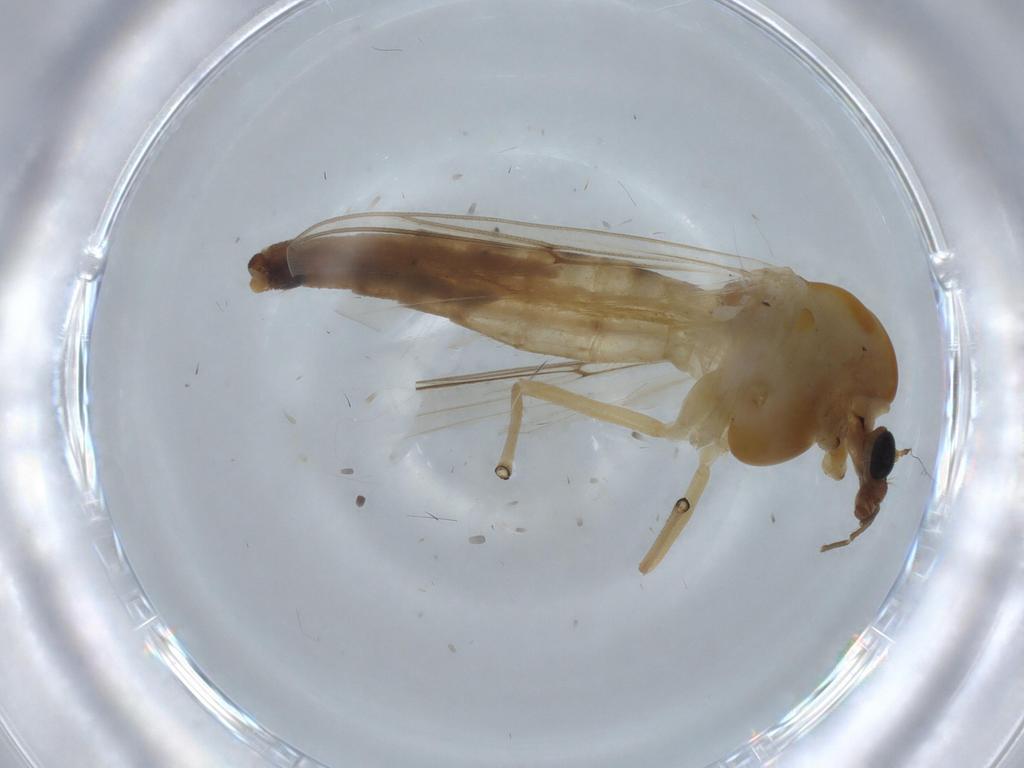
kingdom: Animalia
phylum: Arthropoda
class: Insecta
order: Diptera
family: Chironomidae
